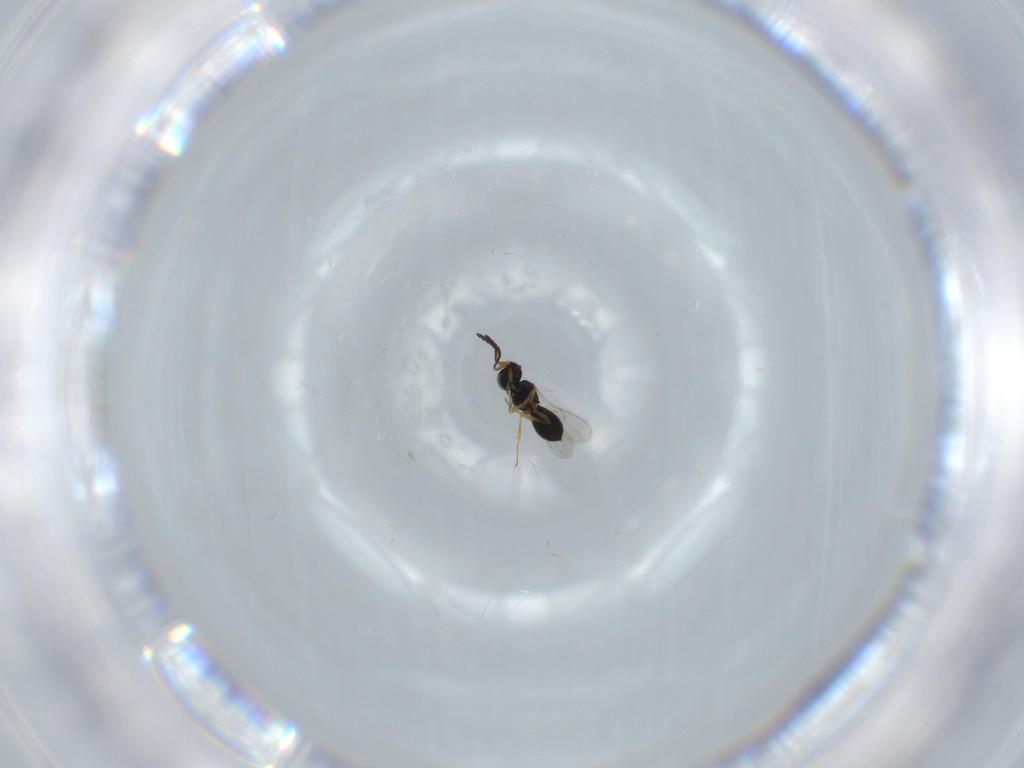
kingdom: Animalia
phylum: Arthropoda
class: Insecta
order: Hymenoptera
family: Scelionidae
